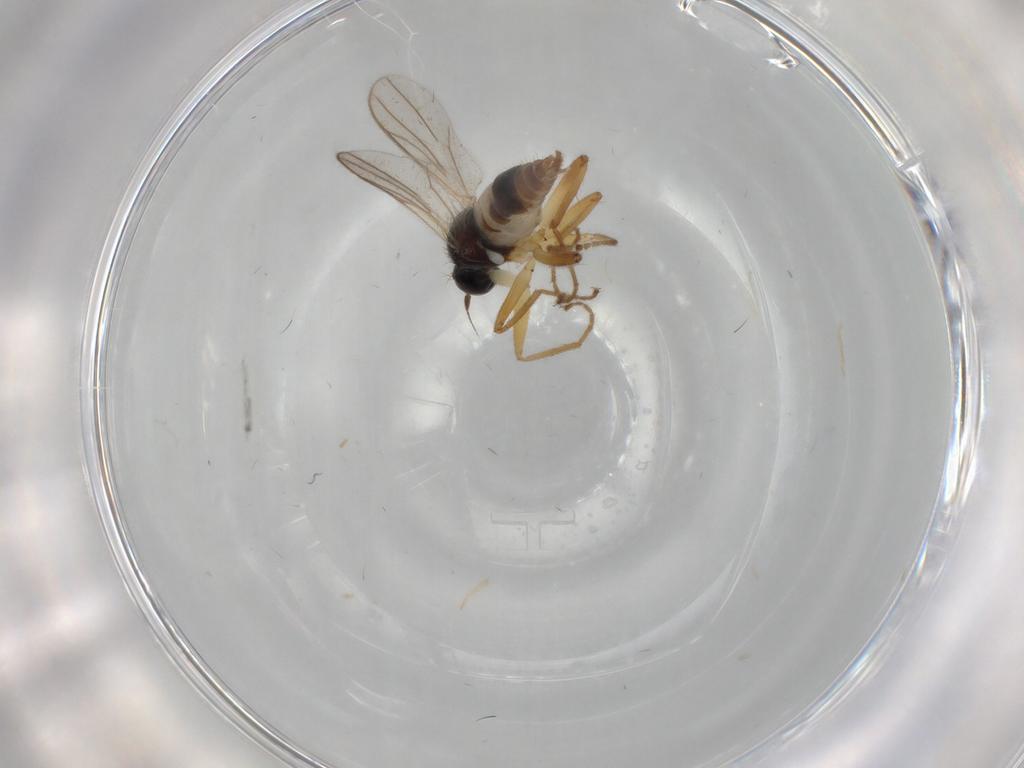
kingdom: Animalia
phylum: Arthropoda
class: Insecta
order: Diptera
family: Hybotidae
